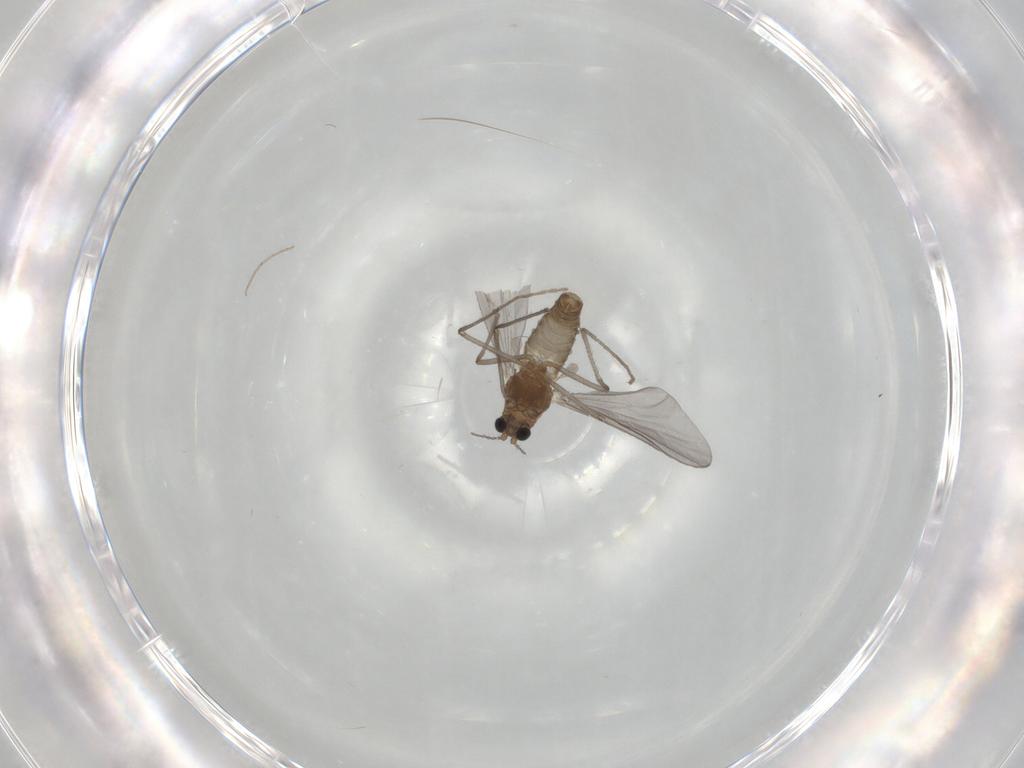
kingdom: Animalia
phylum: Arthropoda
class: Insecta
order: Diptera
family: Chironomidae
